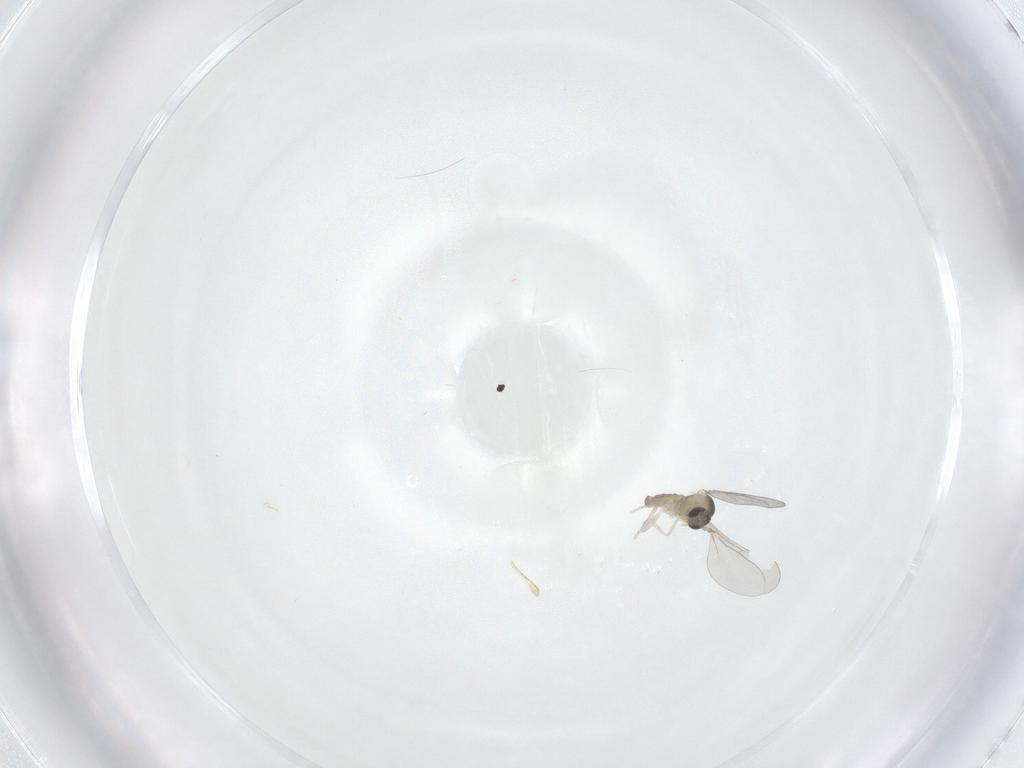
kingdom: Animalia
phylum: Arthropoda
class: Insecta
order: Diptera
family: Cecidomyiidae
